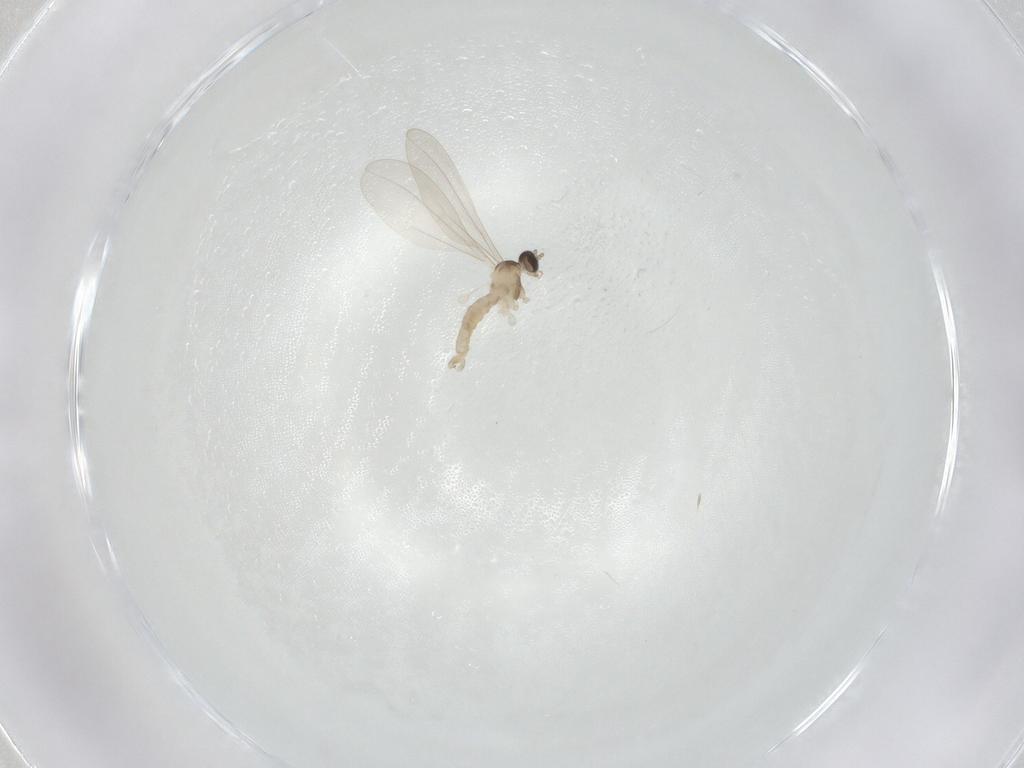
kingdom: Animalia
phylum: Arthropoda
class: Insecta
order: Diptera
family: Cecidomyiidae
